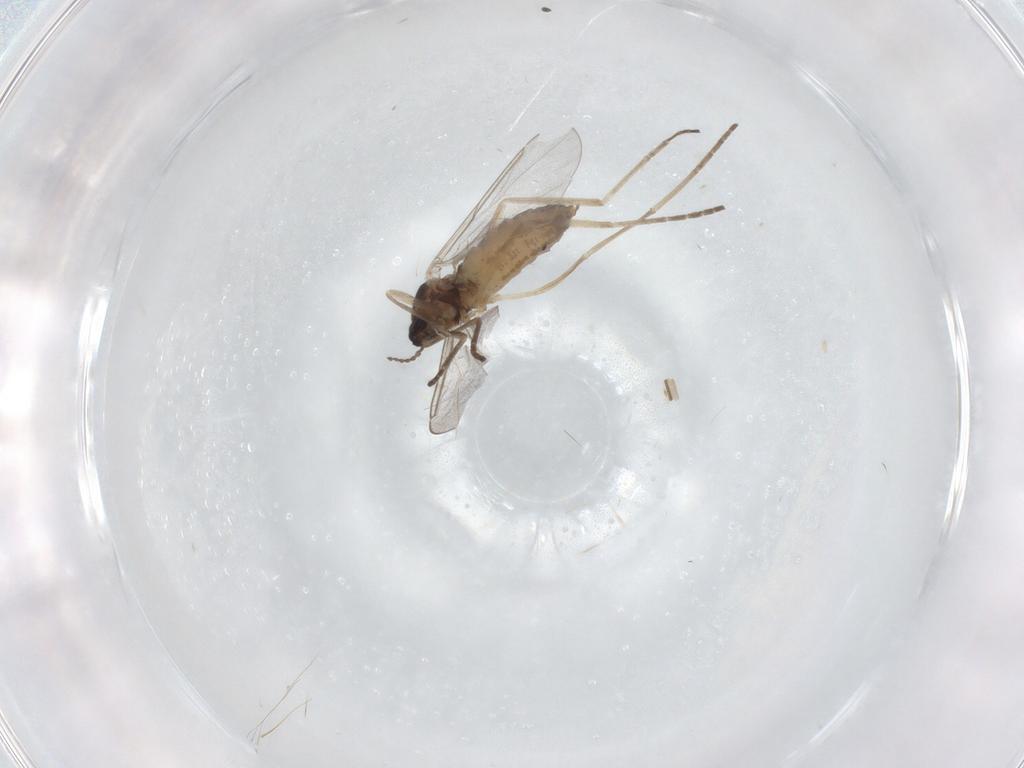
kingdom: Animalia
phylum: Arthropoda
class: Insecta
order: Diptera
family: Cecidomyiidae
